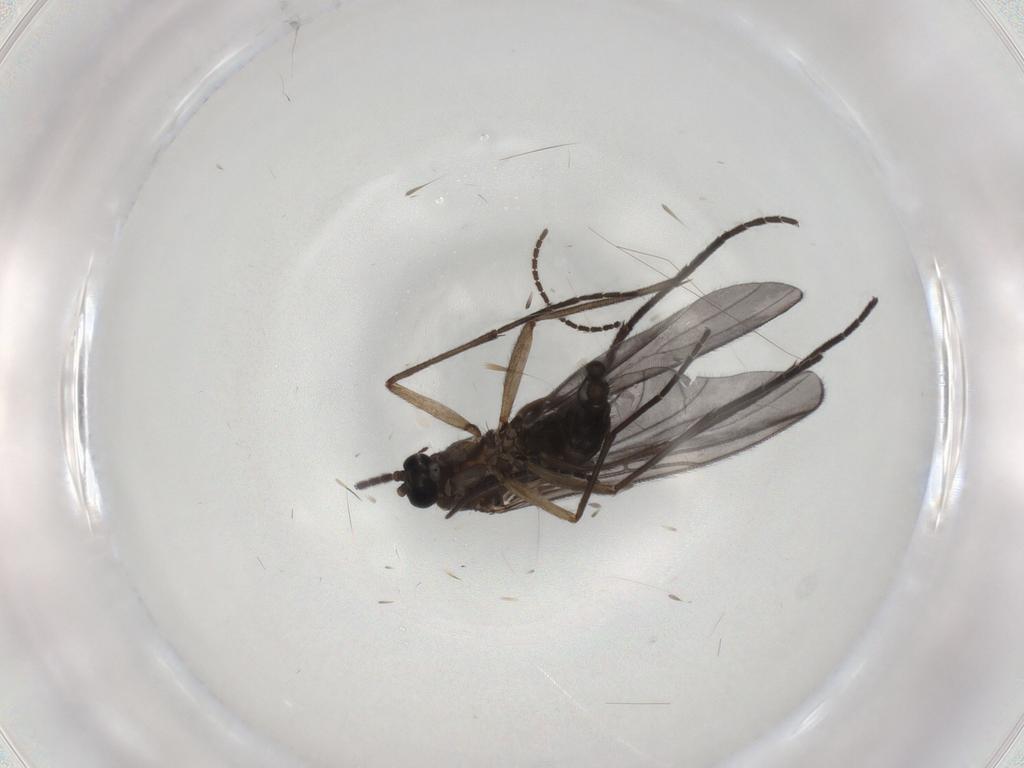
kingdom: Animalia
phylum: Arthropoda
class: Insecta
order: Diptera
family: Sciaridae
